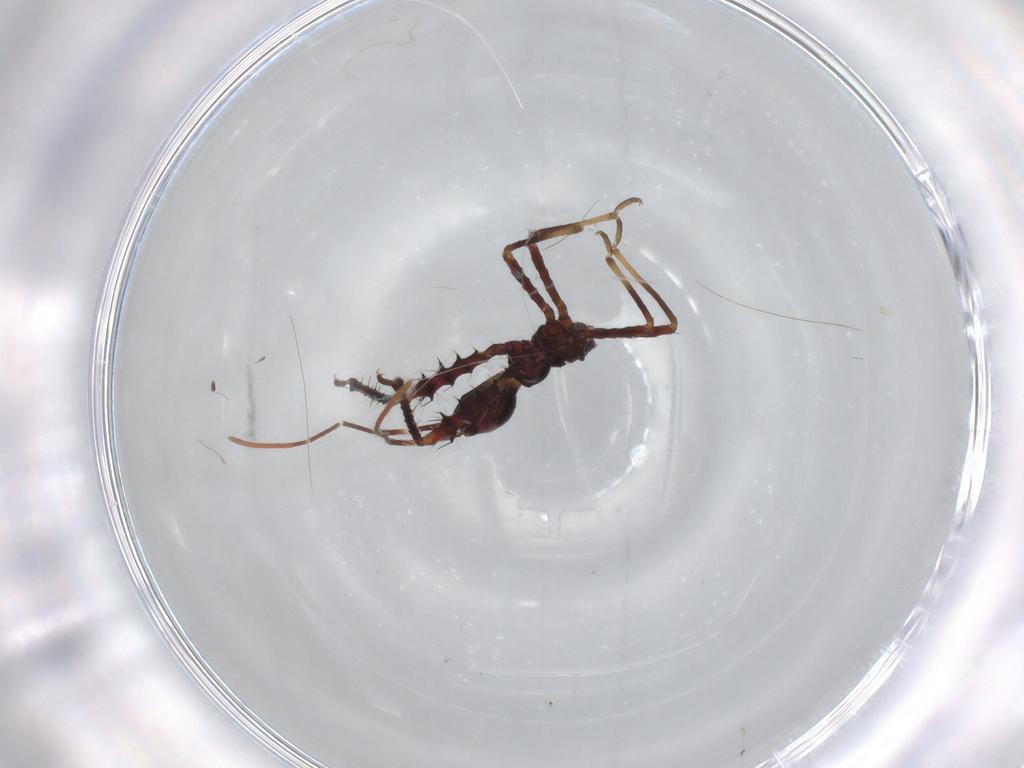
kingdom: Animalia
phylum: Arthropoda
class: Insecta
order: Hemiptera
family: Reduviidae
